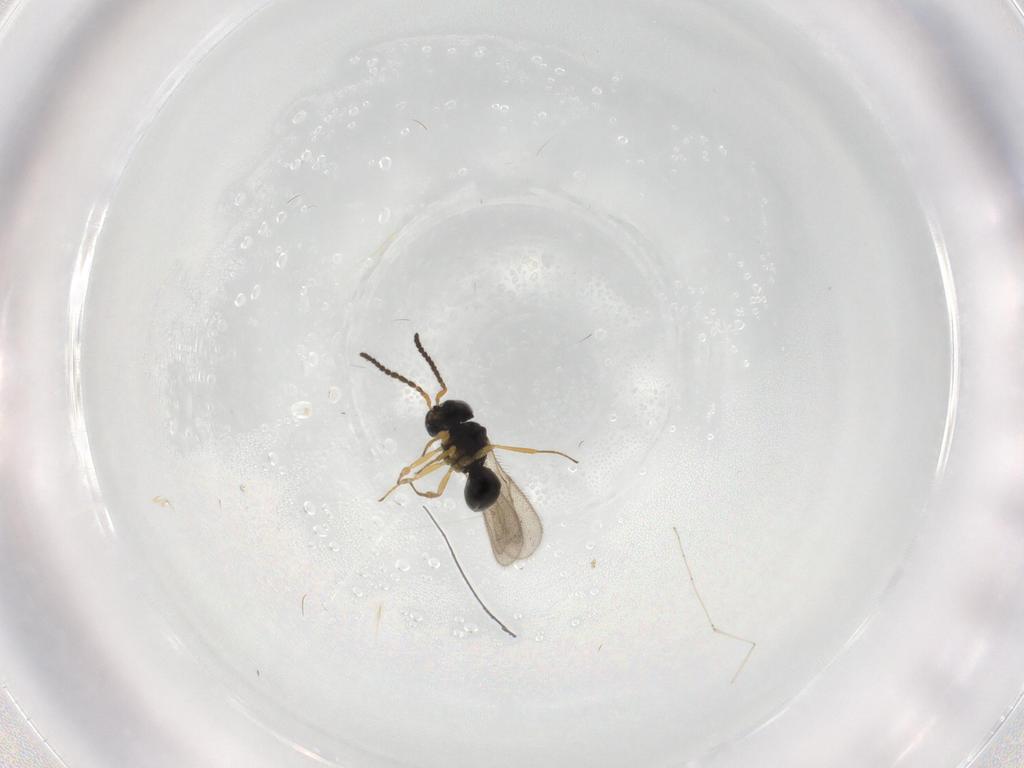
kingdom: Animalia
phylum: Arthropoda
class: Insecta
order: Hymenoptera
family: Scelionidae
